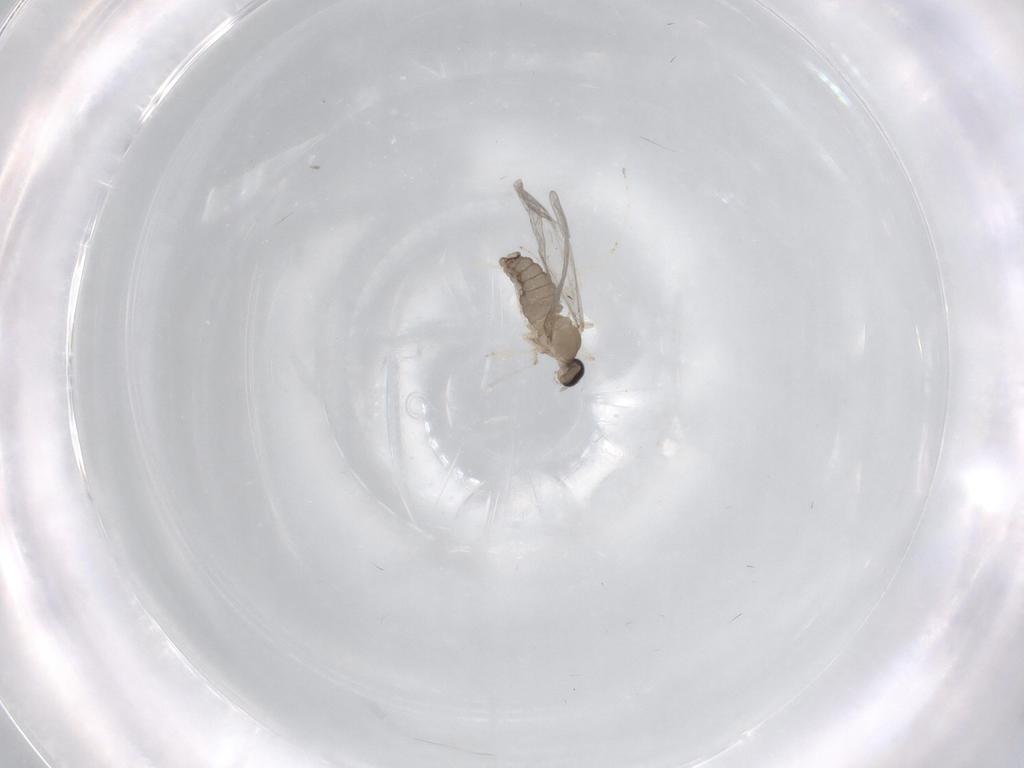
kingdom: Animalia
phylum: Arthropoda
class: Insecta
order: Diptera
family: Cecidomyiidae
